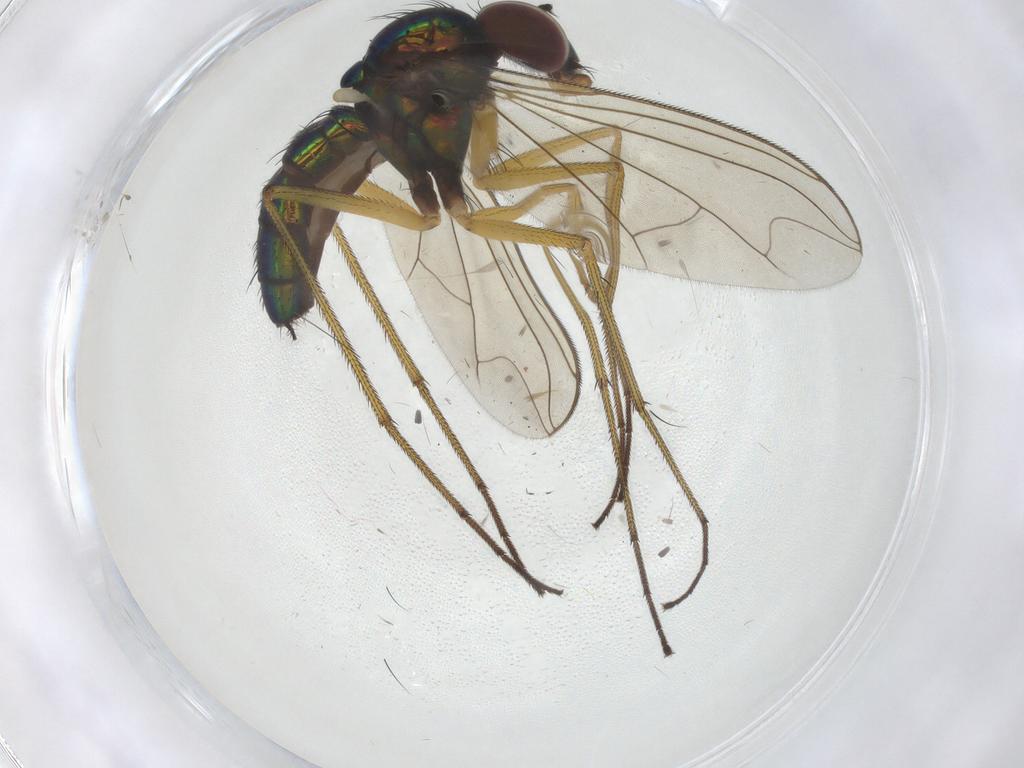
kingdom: Animalia
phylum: Arthropoda
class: Insecta
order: Diptera
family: Dolichopodidae
